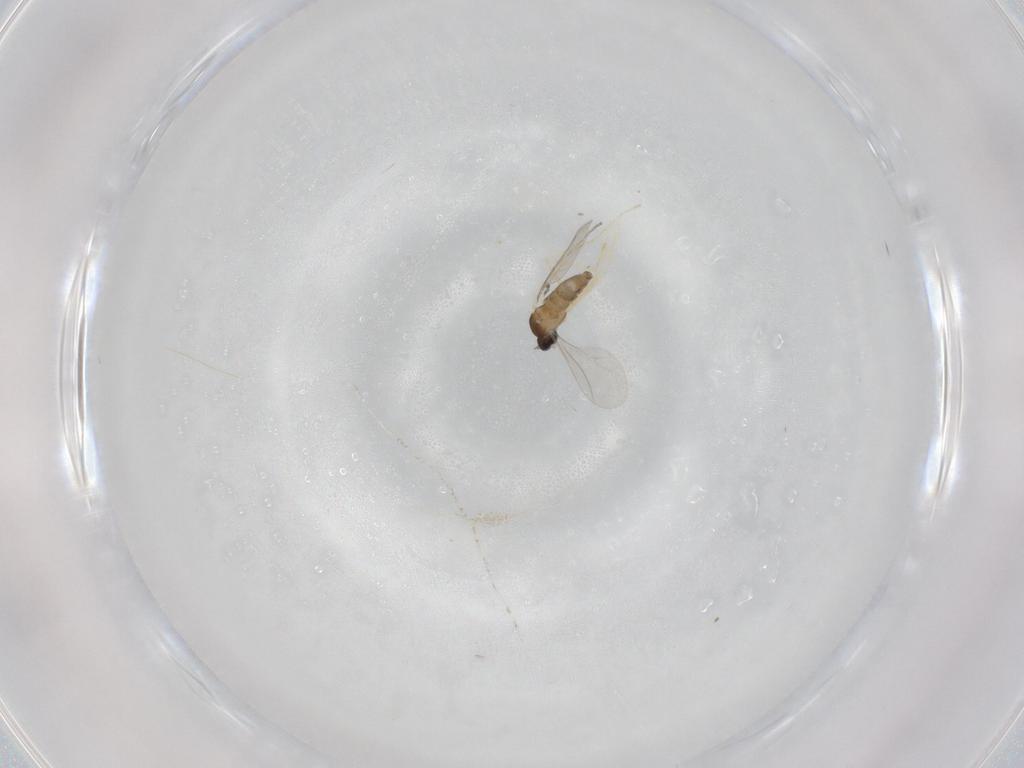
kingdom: Animalia
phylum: Arthropoda
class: Insecta
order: Diptera
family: Cecidomyiidae
